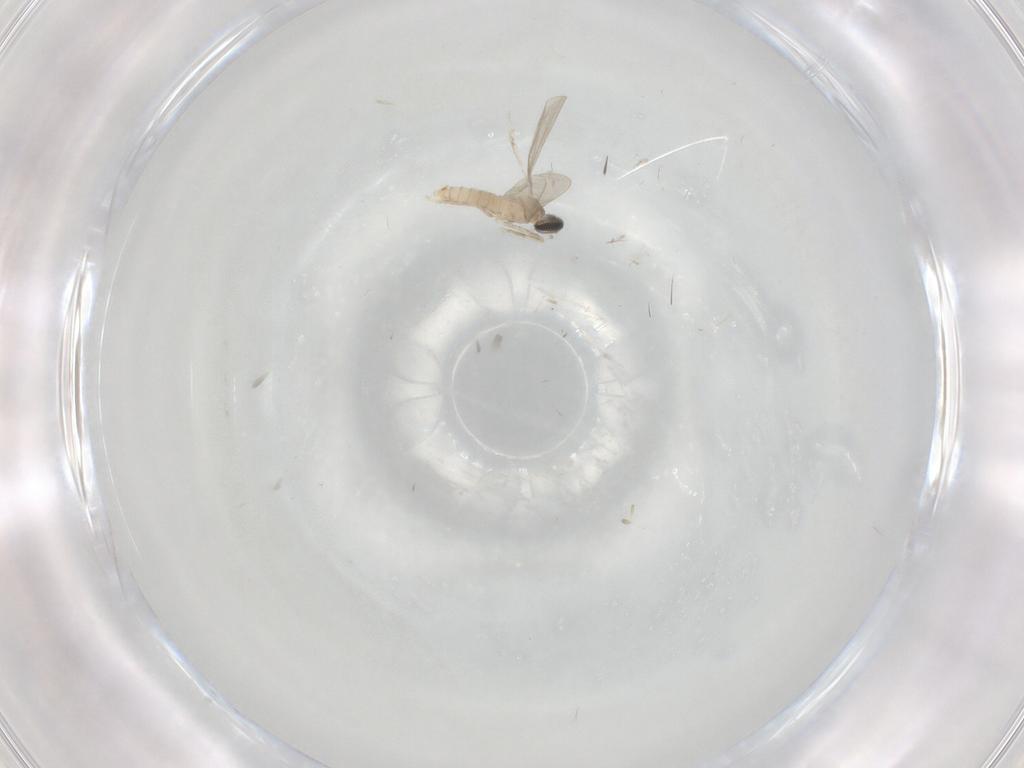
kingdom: Animalia
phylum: Arthropoda
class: Insecta
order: Diptera
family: Cecidomyiidae
